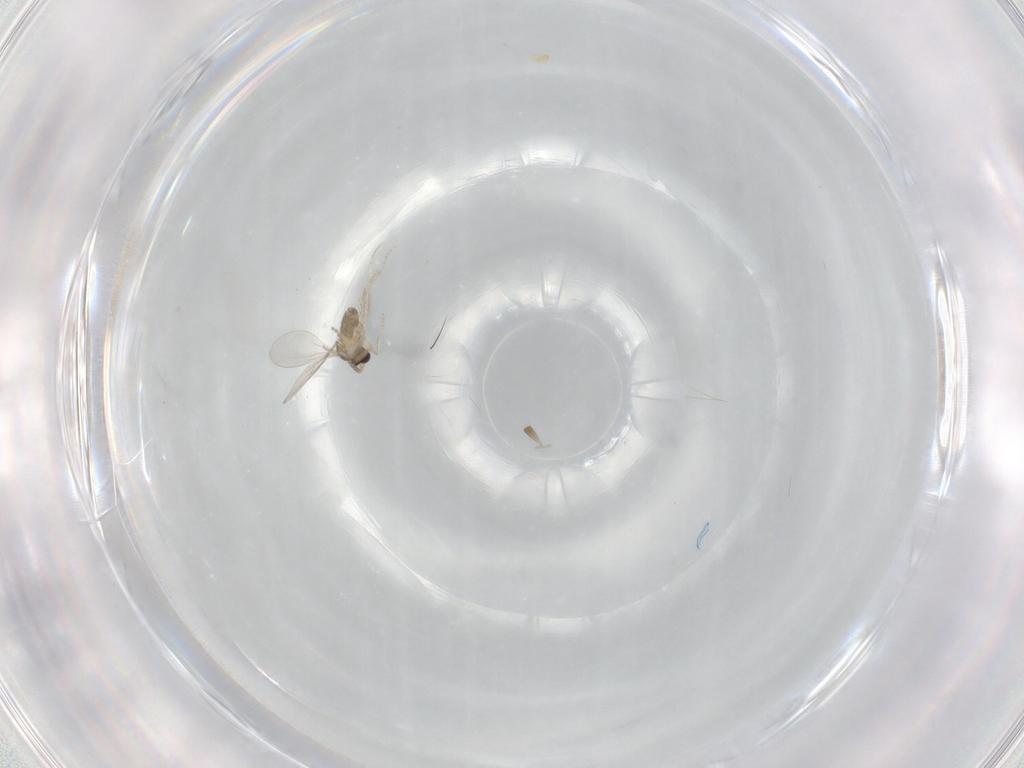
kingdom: Animalia
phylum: Arthropoda
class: Insecta
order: Diptera
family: Cecidomyiidae
